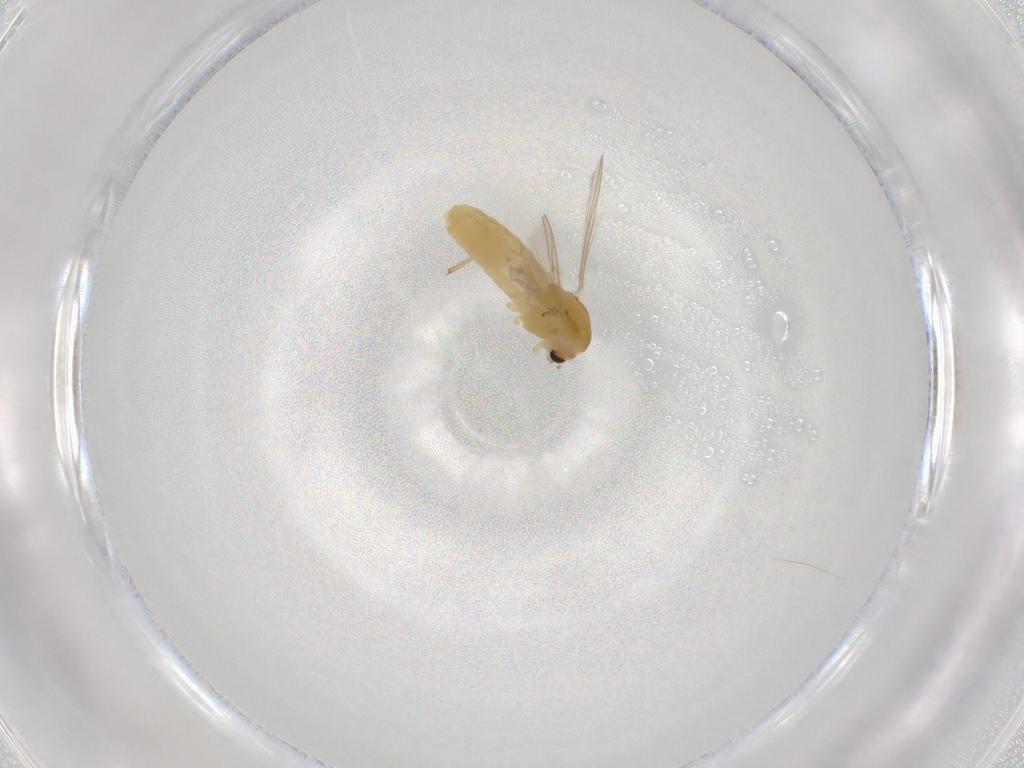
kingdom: Animalia
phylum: Arthropoda
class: Insecta
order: Diptera
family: Chironomidae
